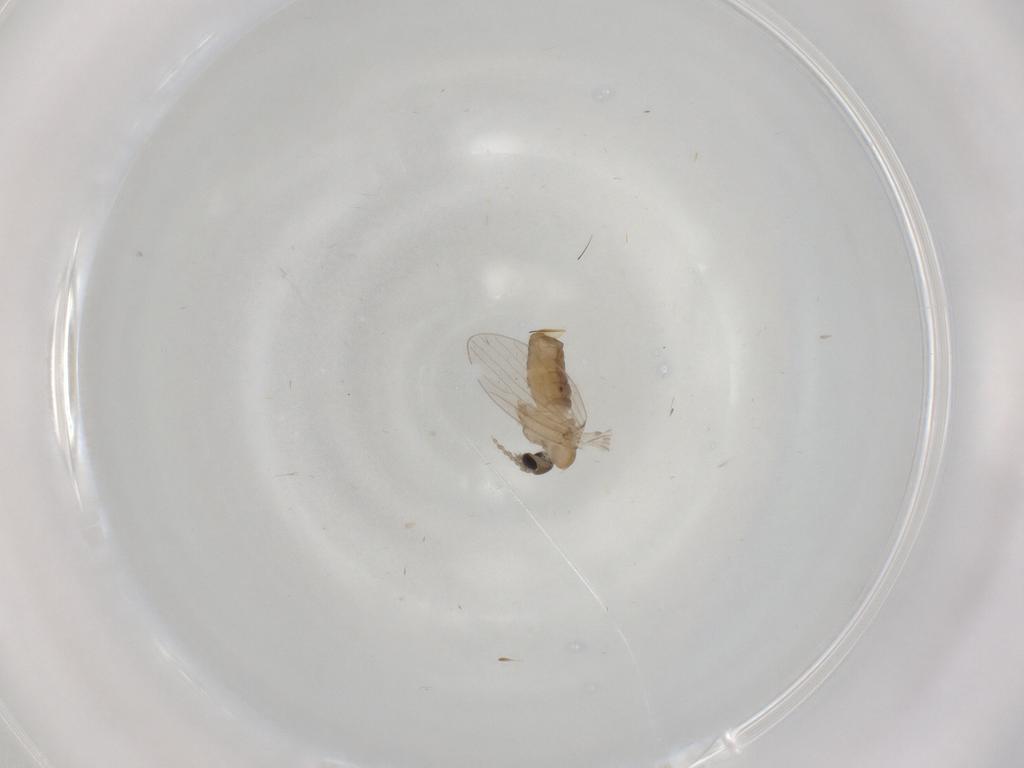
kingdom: Animalia
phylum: Arthropoda
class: Insecta
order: Diptera
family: Psychodidae
